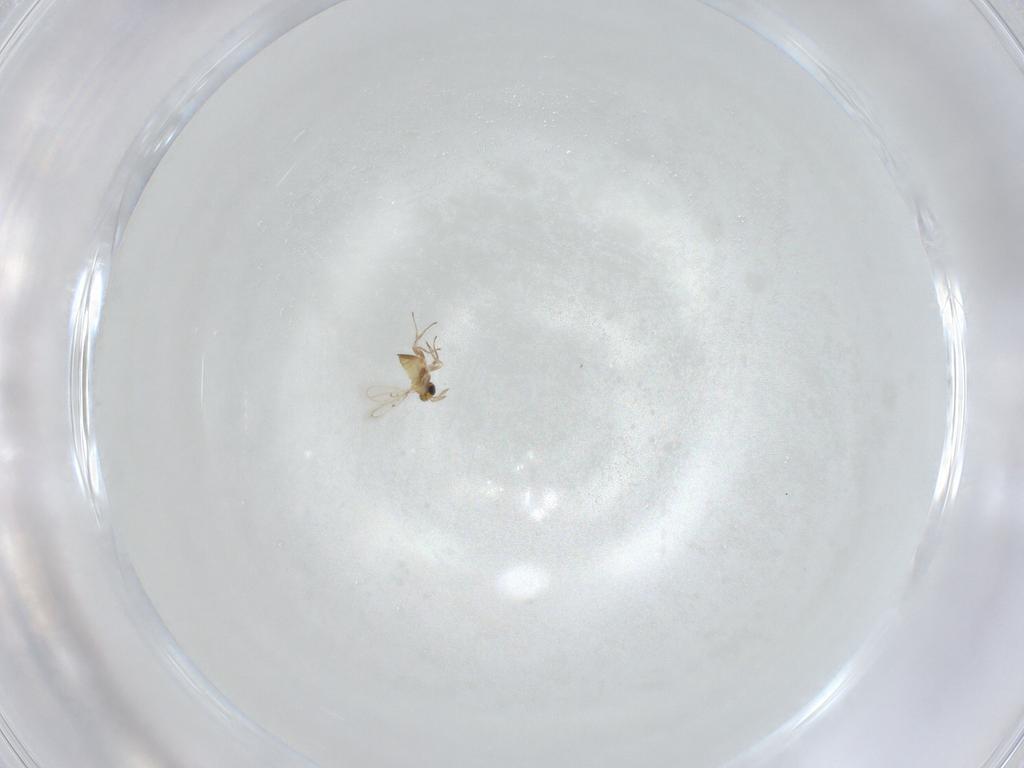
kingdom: Animalia
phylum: Arthropoda
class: Insecta
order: Hymenoptera
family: Trichogrammatidae
